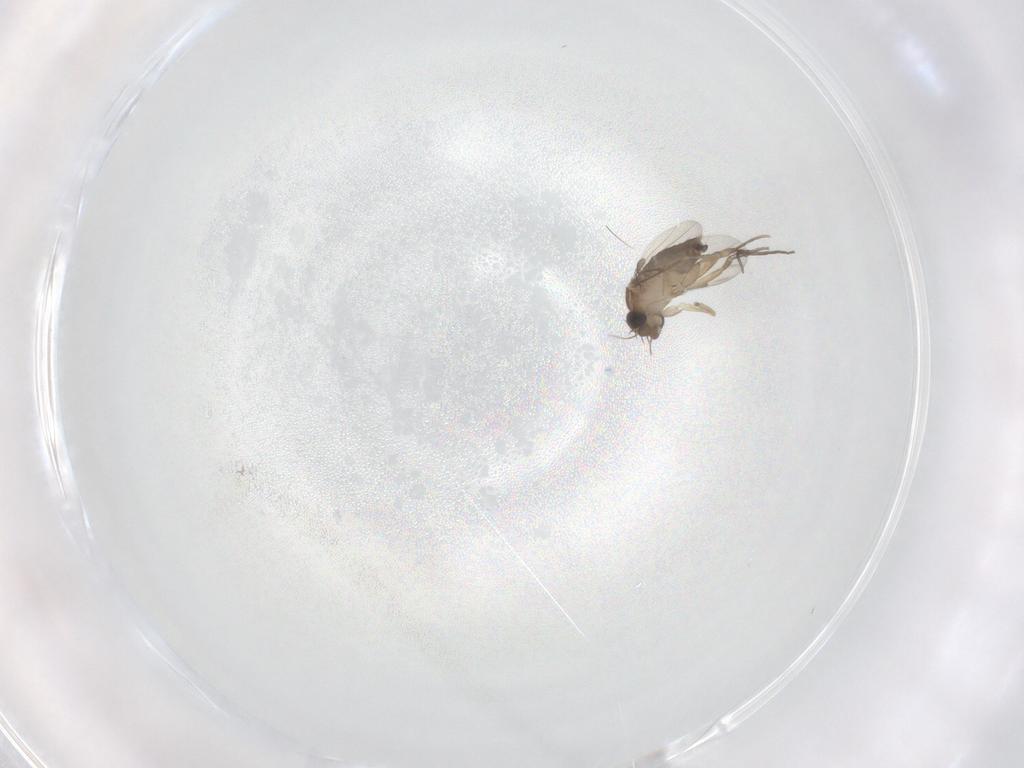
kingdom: Animalia
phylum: Arthropoda
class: Insecta
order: Diptera
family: Phoridae
